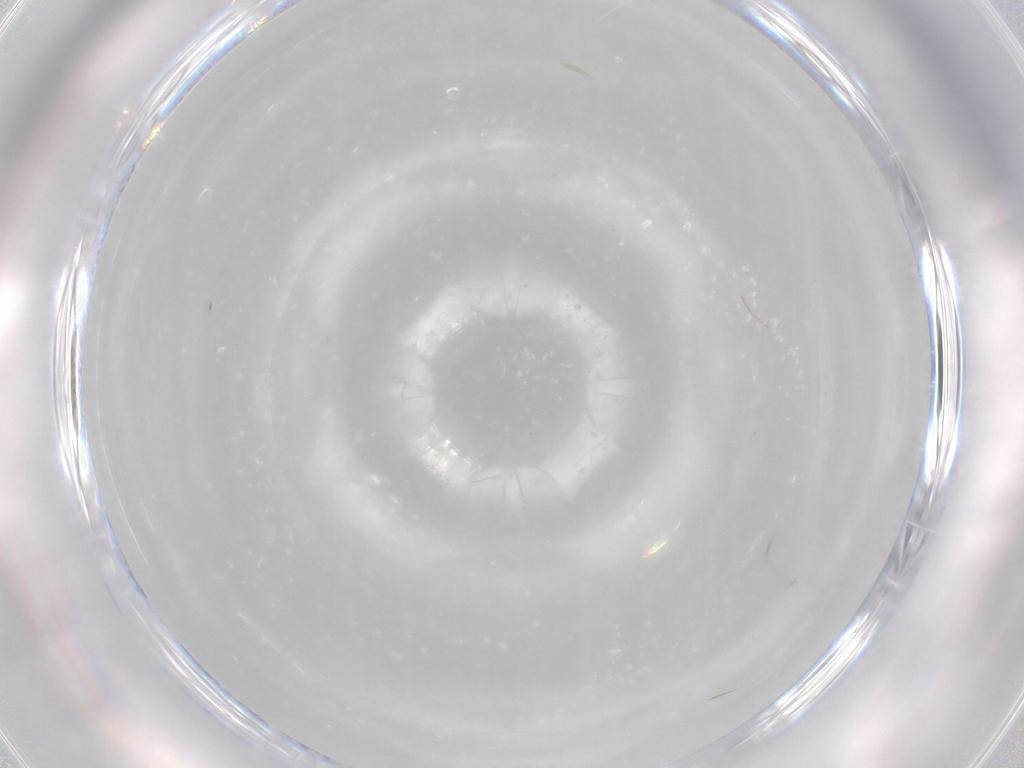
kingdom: Animalia
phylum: Arthropoda
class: Insecta
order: Diptera
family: Cecidomyiidae
